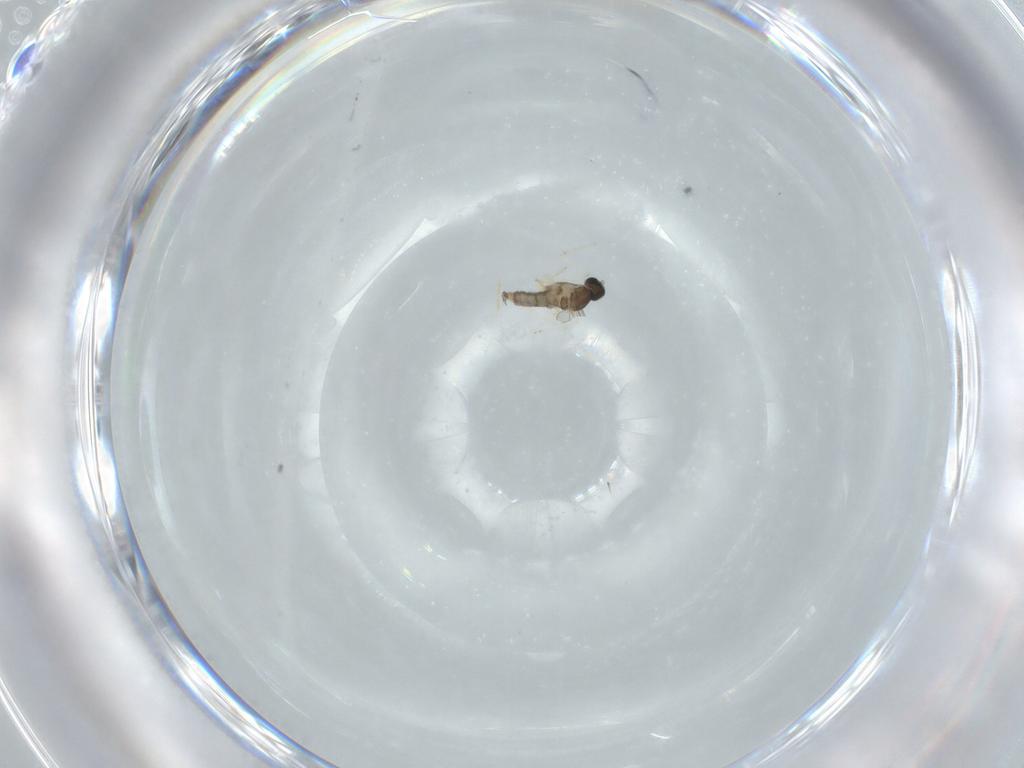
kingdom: Animalia
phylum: Arthropoda
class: Insecta
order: Diptera
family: Cecidomyiidae
